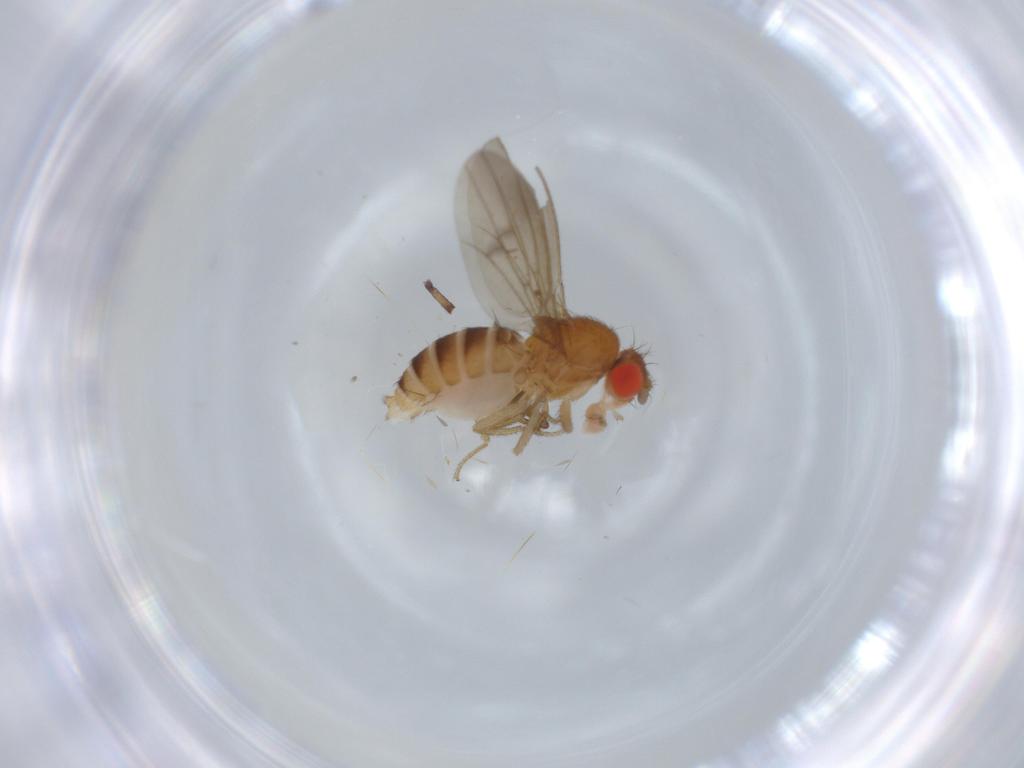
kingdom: Animalia
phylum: Arthropoda
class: Insecta
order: Diptera
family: Drosophilidae
